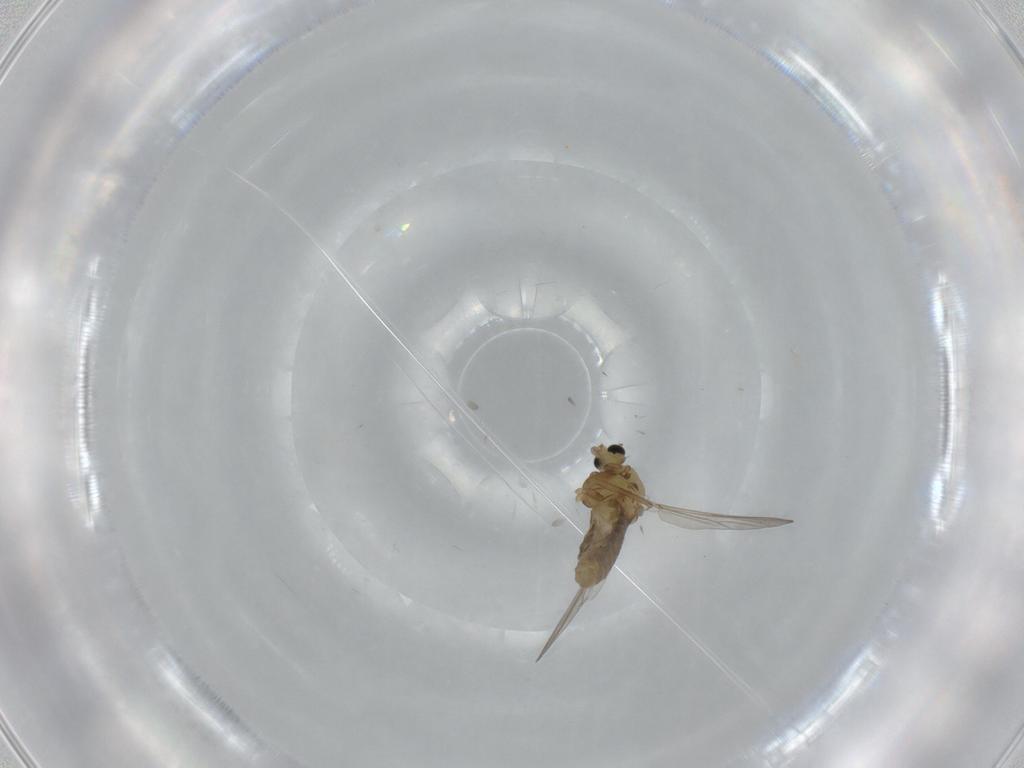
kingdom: Animalia
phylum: Arthropoda
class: Insecta
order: Diptera
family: Chironomidae
